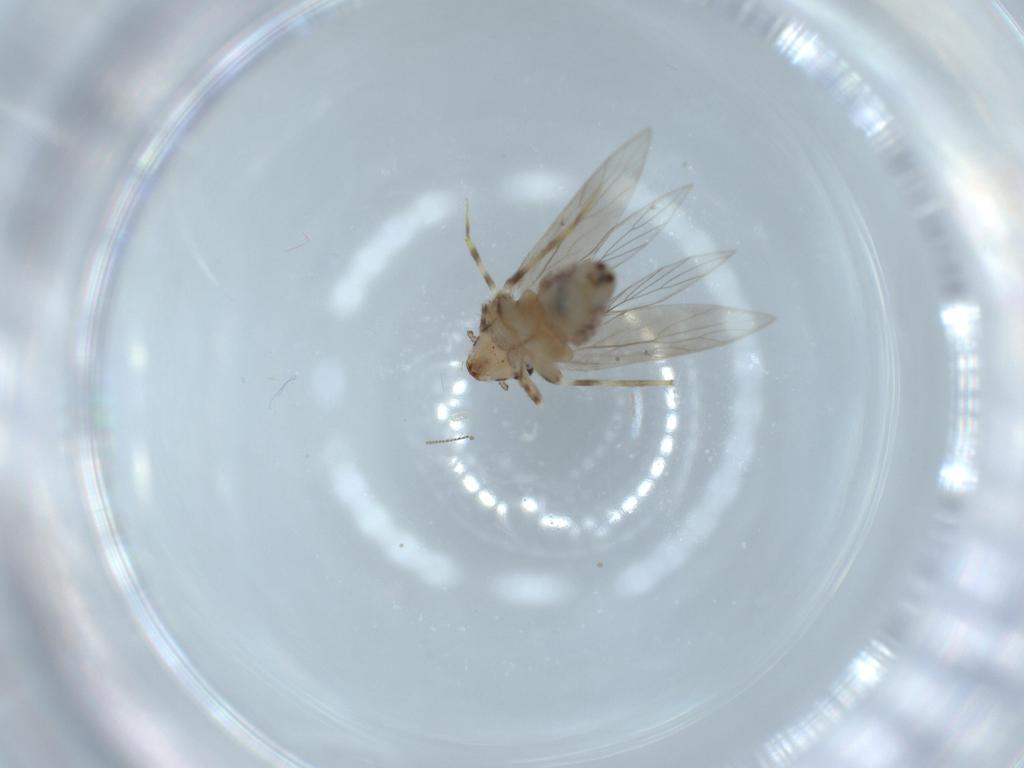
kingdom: Animalia
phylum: Arthropoda
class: Insecta
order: Psocodea
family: Lepidopsocidae
